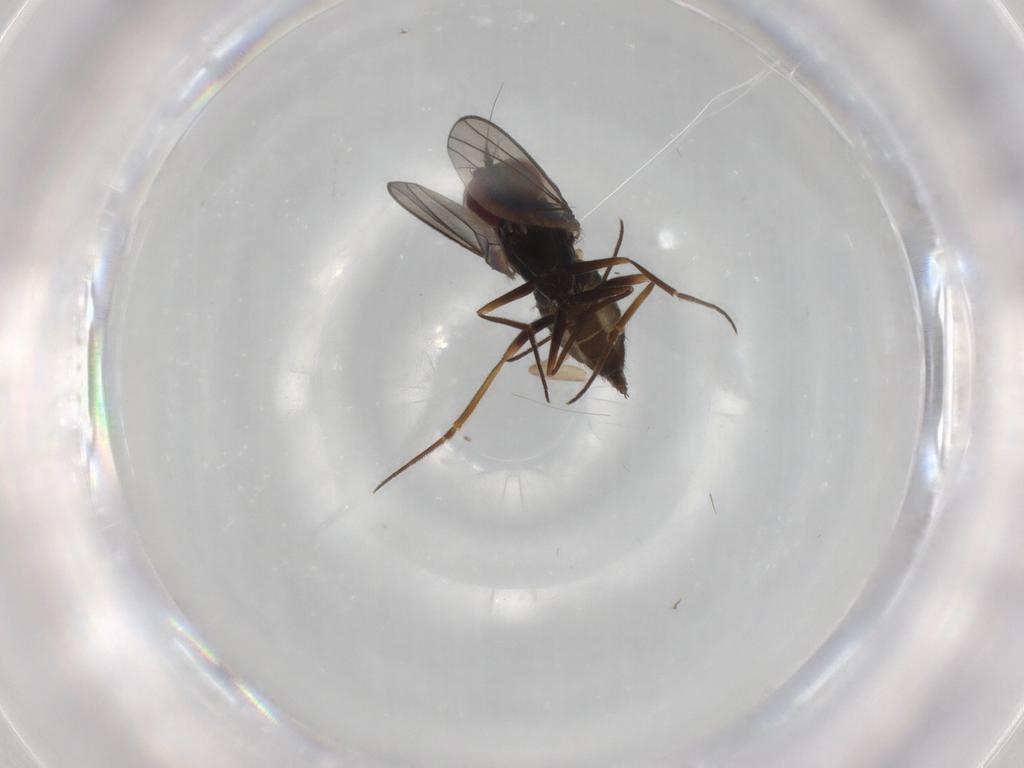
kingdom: Animalia
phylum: Arthropoda
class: Insecta
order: Diptera
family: Dolichopodidae
